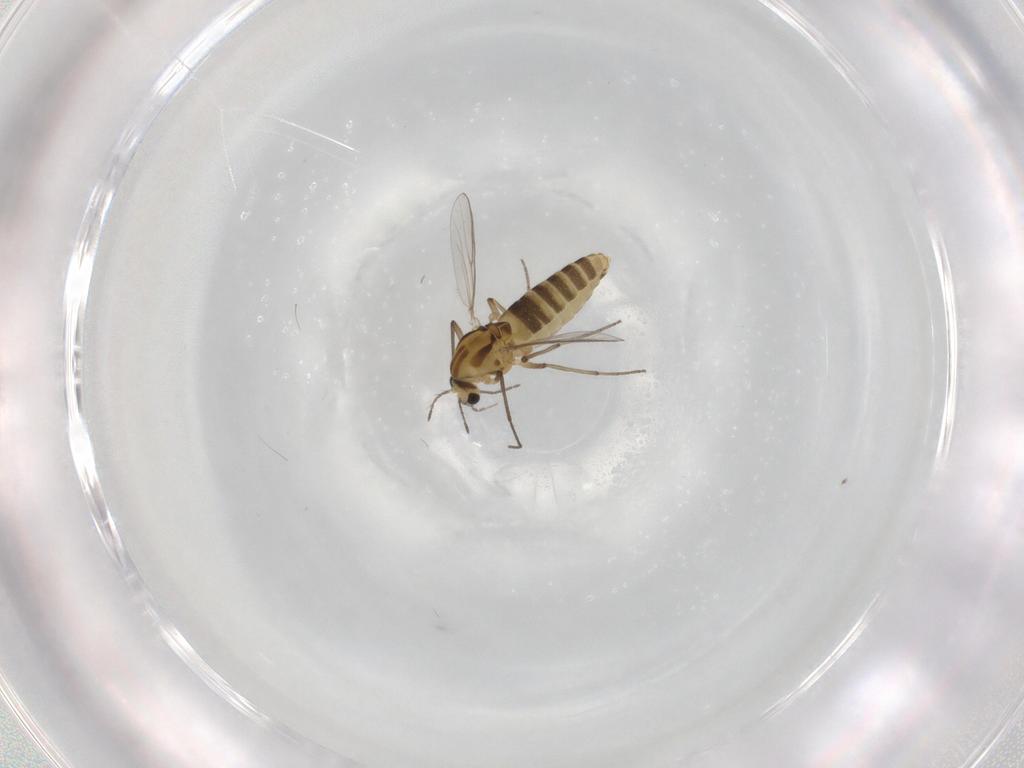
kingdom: Animalia
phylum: Arthropoda
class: Insecta
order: Diptera
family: Chironomidae
